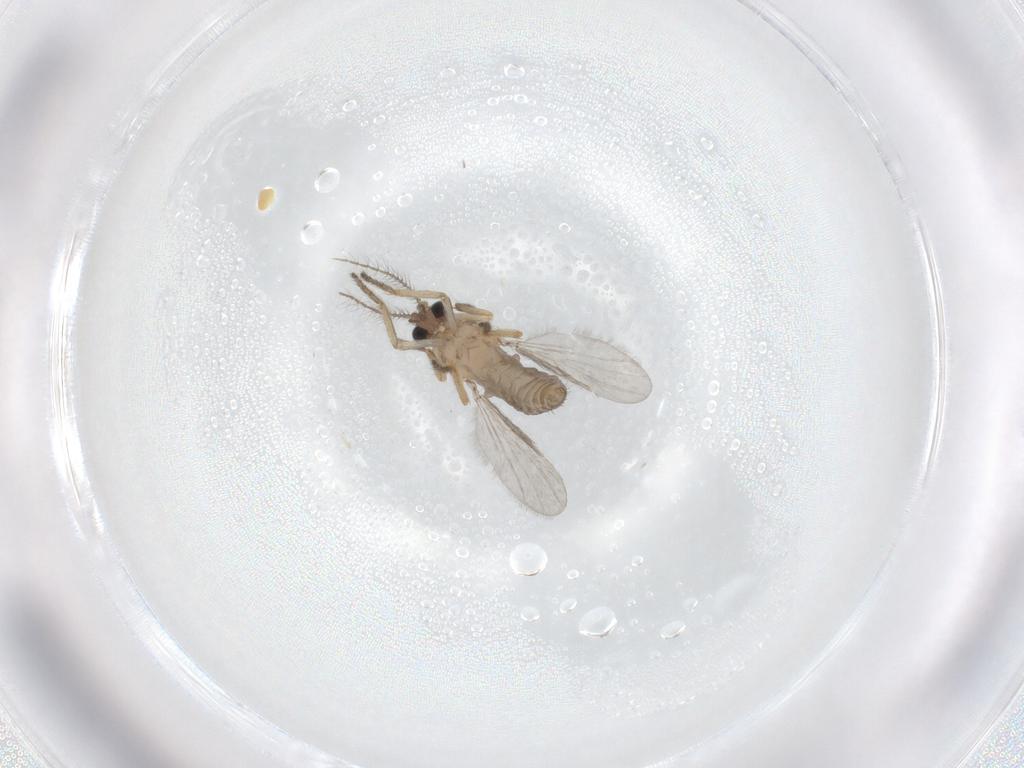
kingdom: Animalia
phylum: Arthropoda
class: Insecta
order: Diptera
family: Ceratopogonidae
